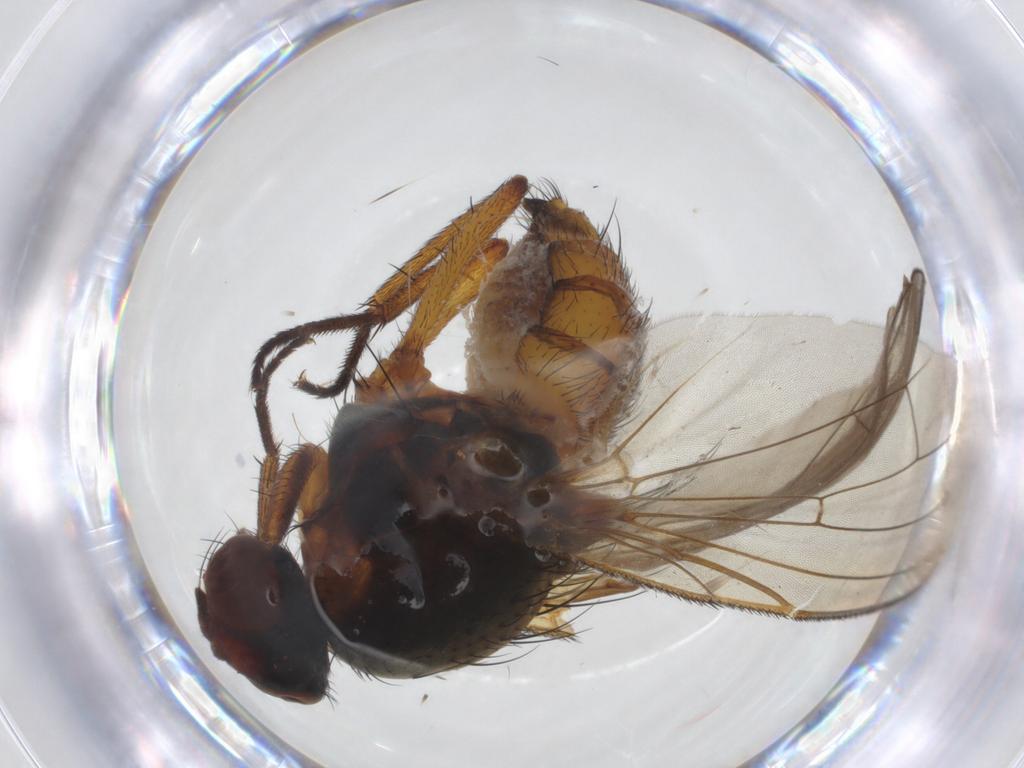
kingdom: Animalia
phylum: Arthropoda
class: Insecta
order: Diptera
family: Anthomyiidae
